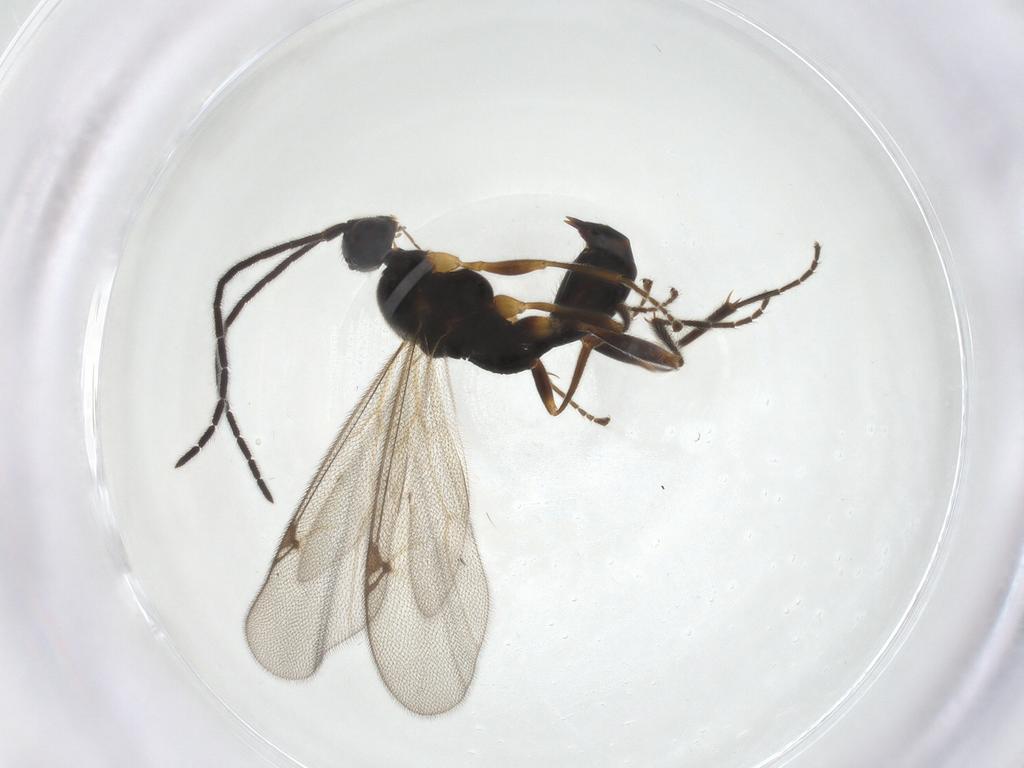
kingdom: Animalia
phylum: Arthropoda
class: Insecta
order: Hymenoptera
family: Proctotrupidae
